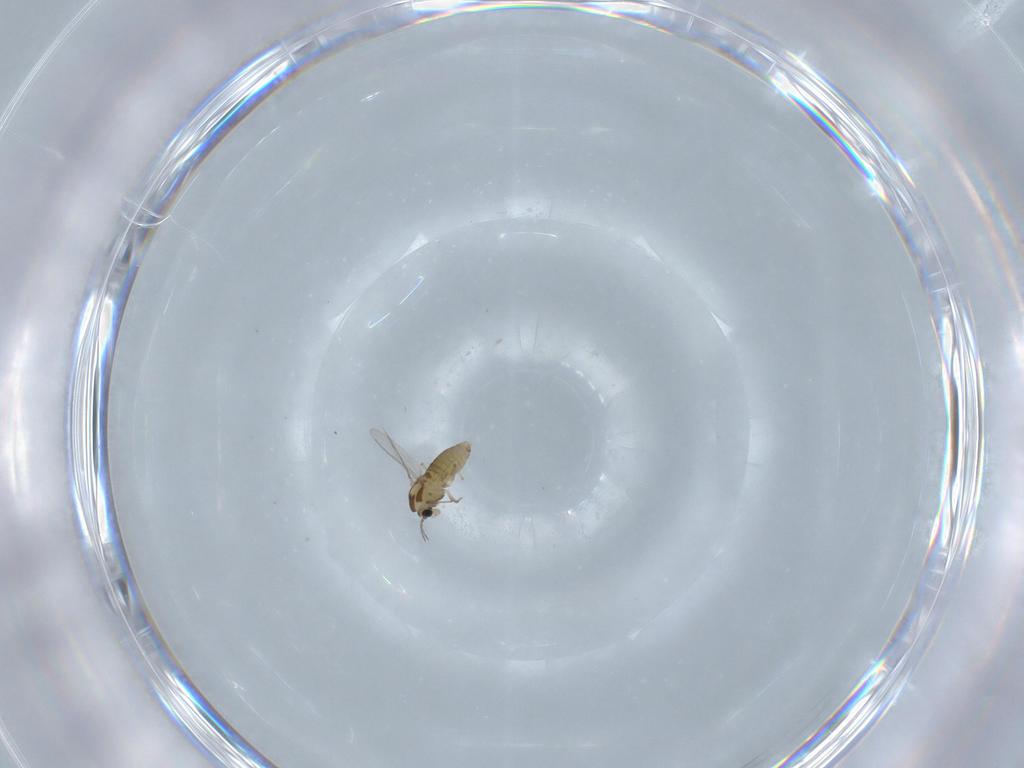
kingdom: Animalia
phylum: Arthropoda
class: Insecta
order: Diptera
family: Chironomidae
